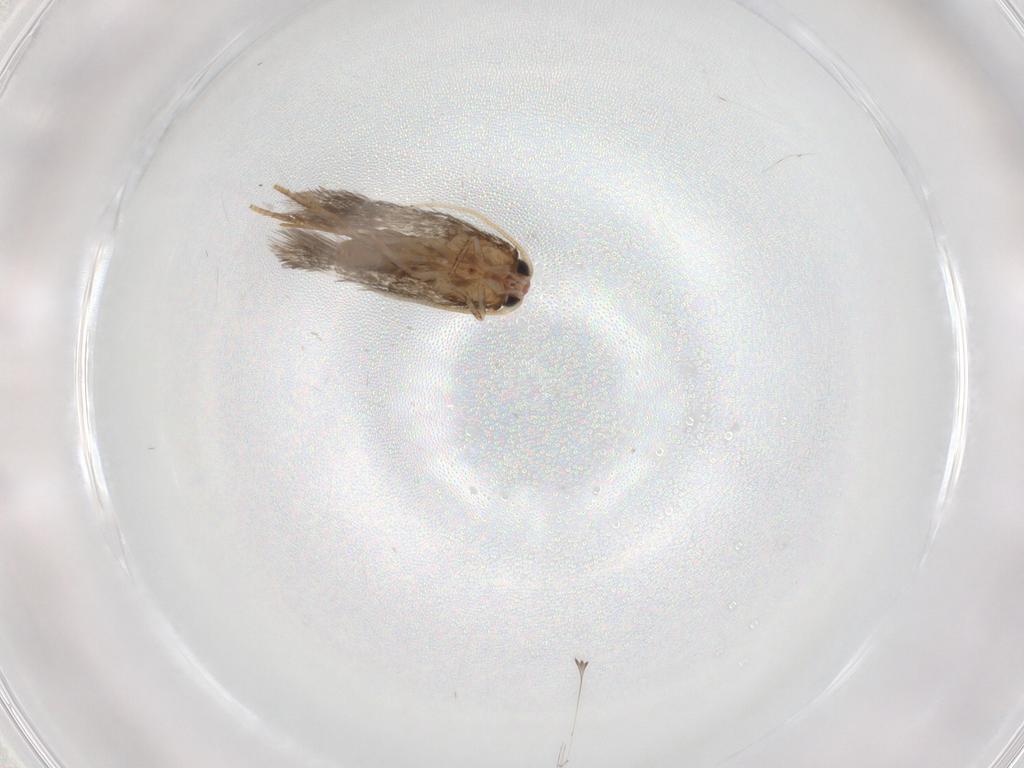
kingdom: Animalia
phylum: Arthropoda
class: Insecta
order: Lepidoptera
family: Nepticulidae
